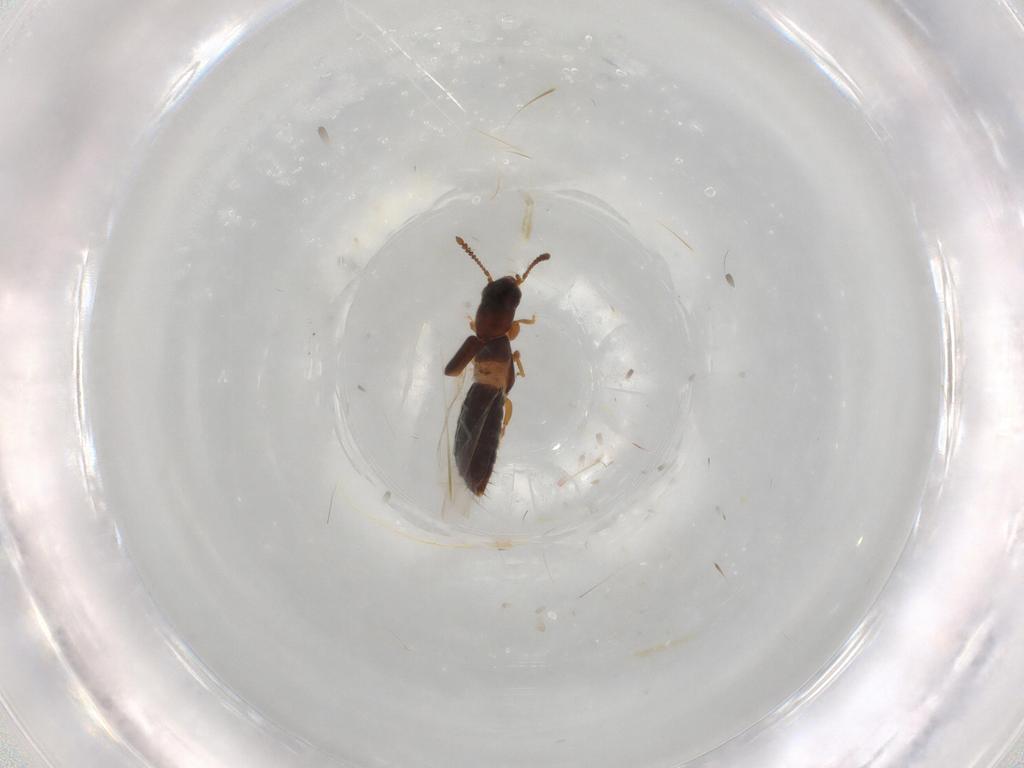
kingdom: Animalia
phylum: Arthropoda
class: Insecta
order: Coleoptera
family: Staphylinidae
